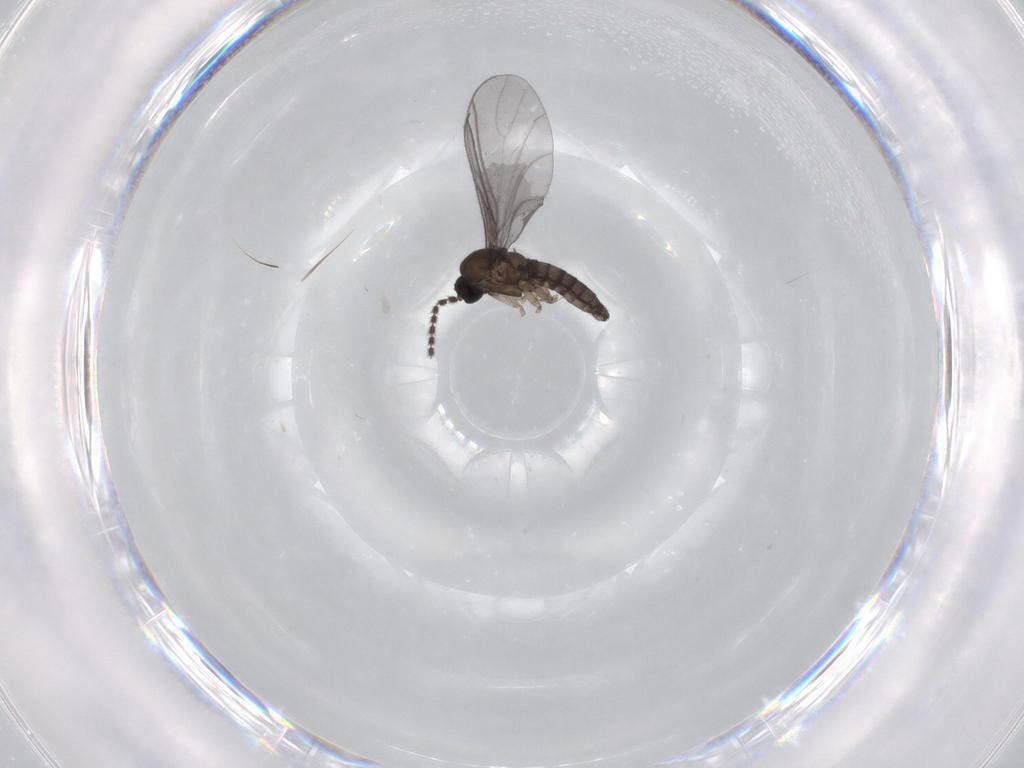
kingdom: Animalia
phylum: Arthropoda
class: Insecta
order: Diptera
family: Sciaridae
